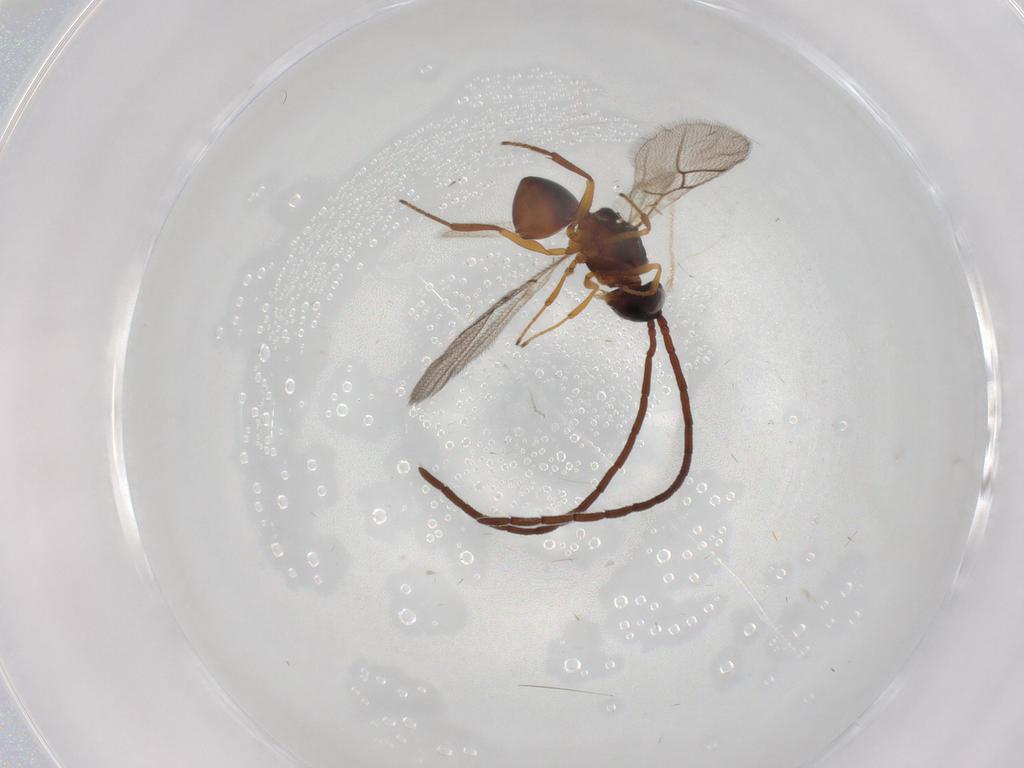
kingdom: Animalia
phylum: Arthropoda
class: Insecta
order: Hymenoptera
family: Figitidae
